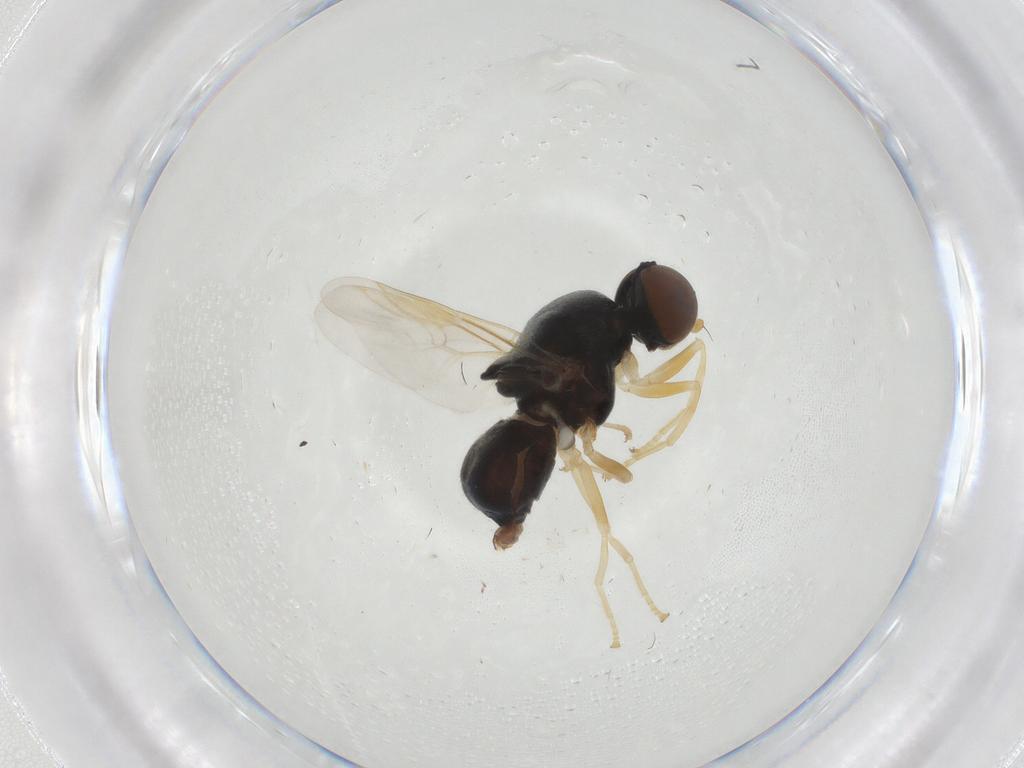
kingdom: Animalia
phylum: Arthropoda
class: Insecta
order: Diptera
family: Stratiomyidae
